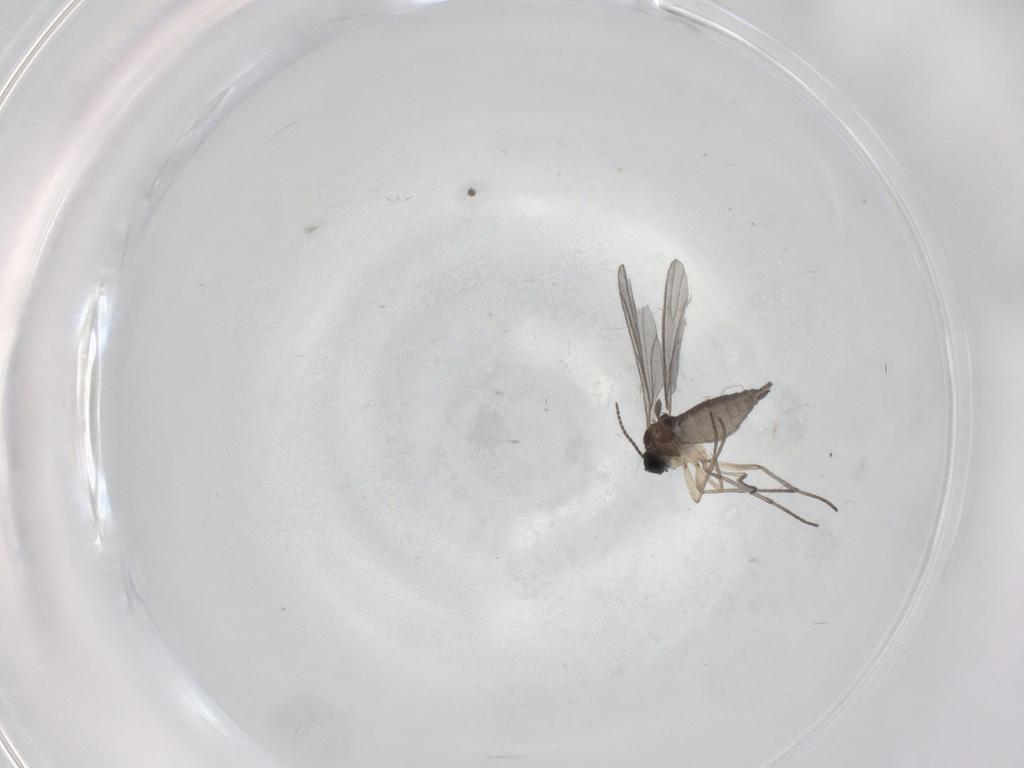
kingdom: Animalia
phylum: Arthropoda
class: Insecta
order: Diptera
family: Sciaridae
